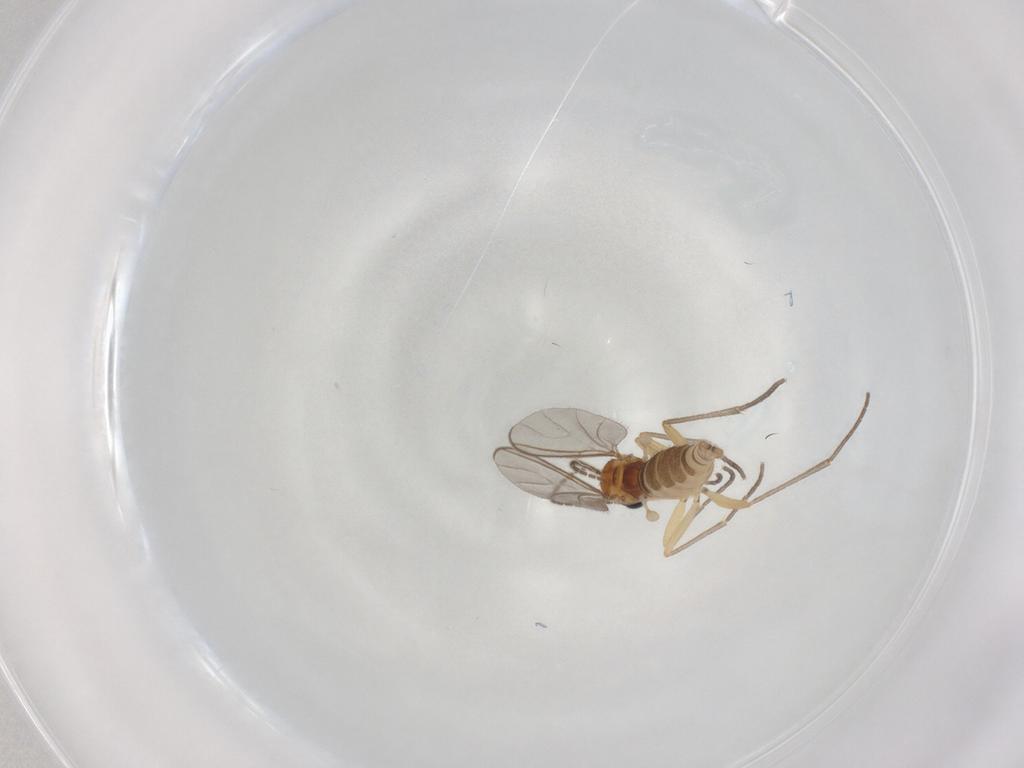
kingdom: Animalia
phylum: Arthropoda
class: Insecta
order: Diptera
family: Sciaridae
